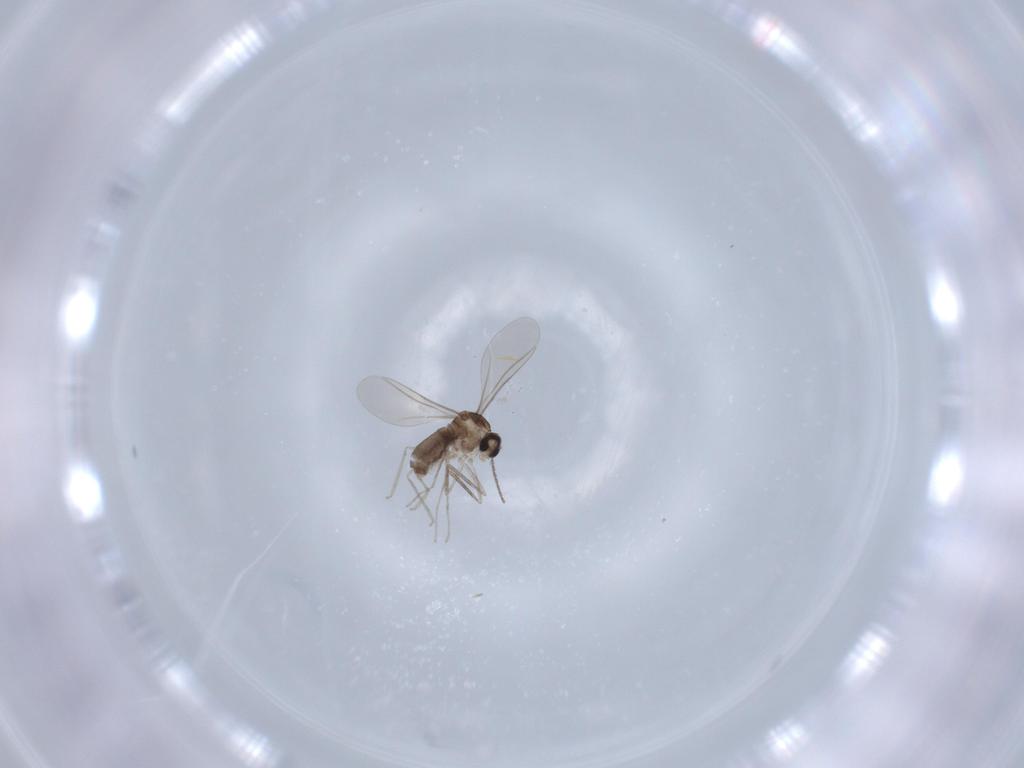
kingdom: Animalia
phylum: Arthropoda
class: Insecta
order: Diptera
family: Cecidomyiidae
